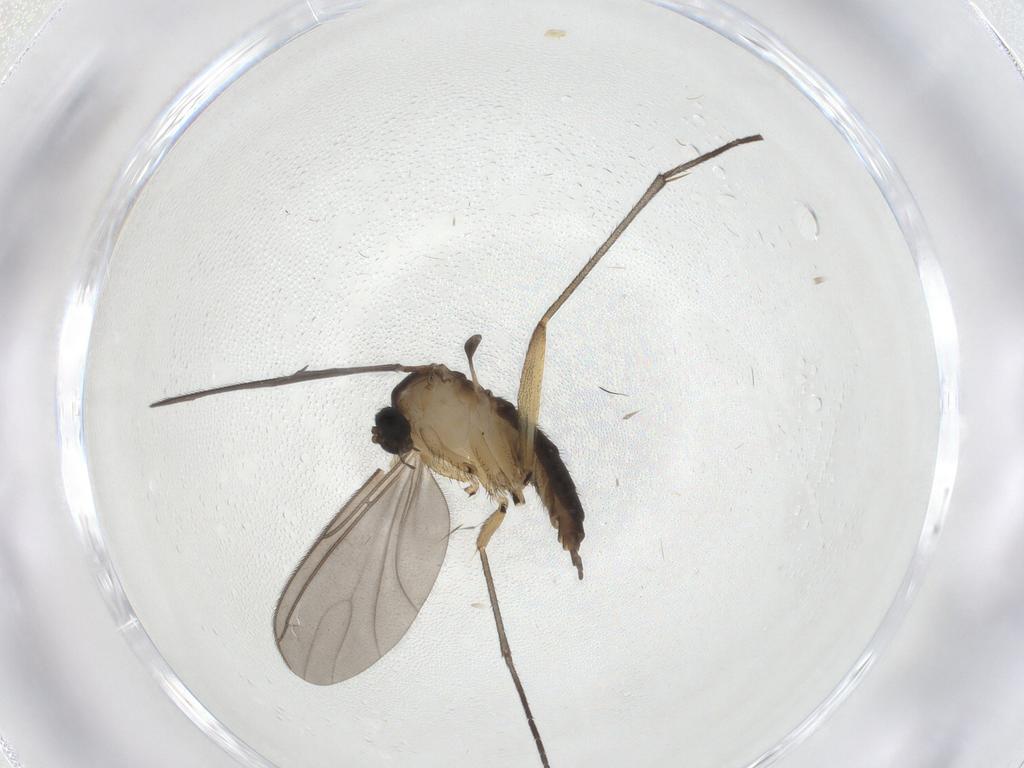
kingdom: Animalia
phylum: Arthropoda
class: Insecta
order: Diptera
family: Sciaridae
